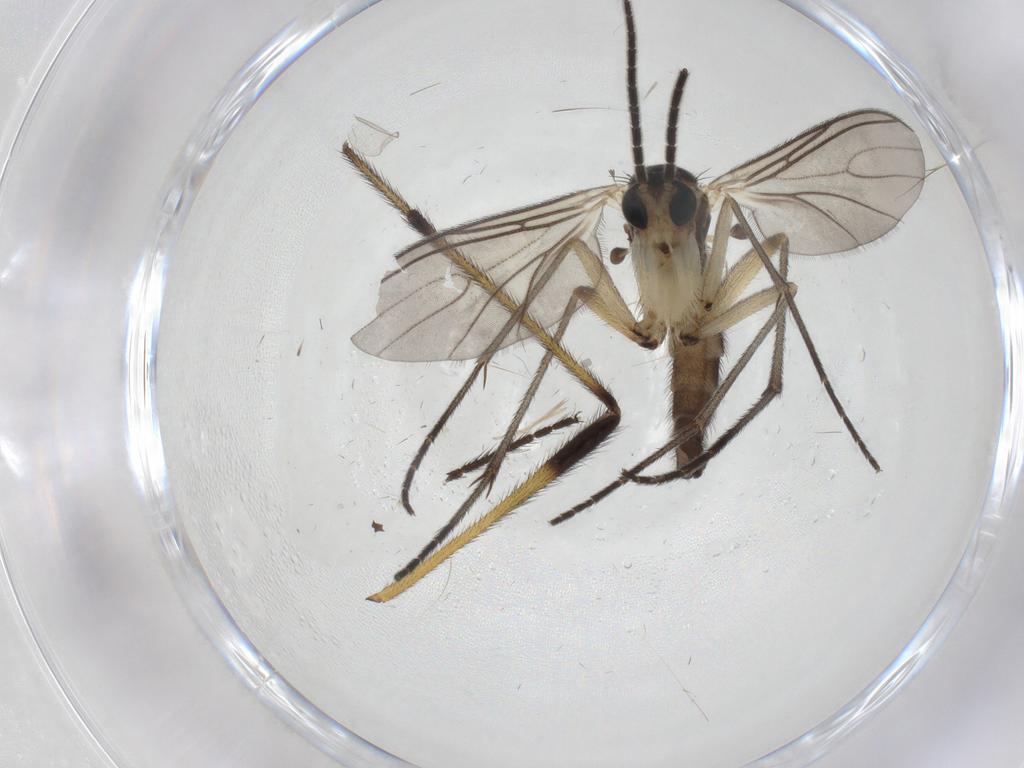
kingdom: Animalia
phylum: Arthropoda
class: Insecta
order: Diptera
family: Sciaridae
